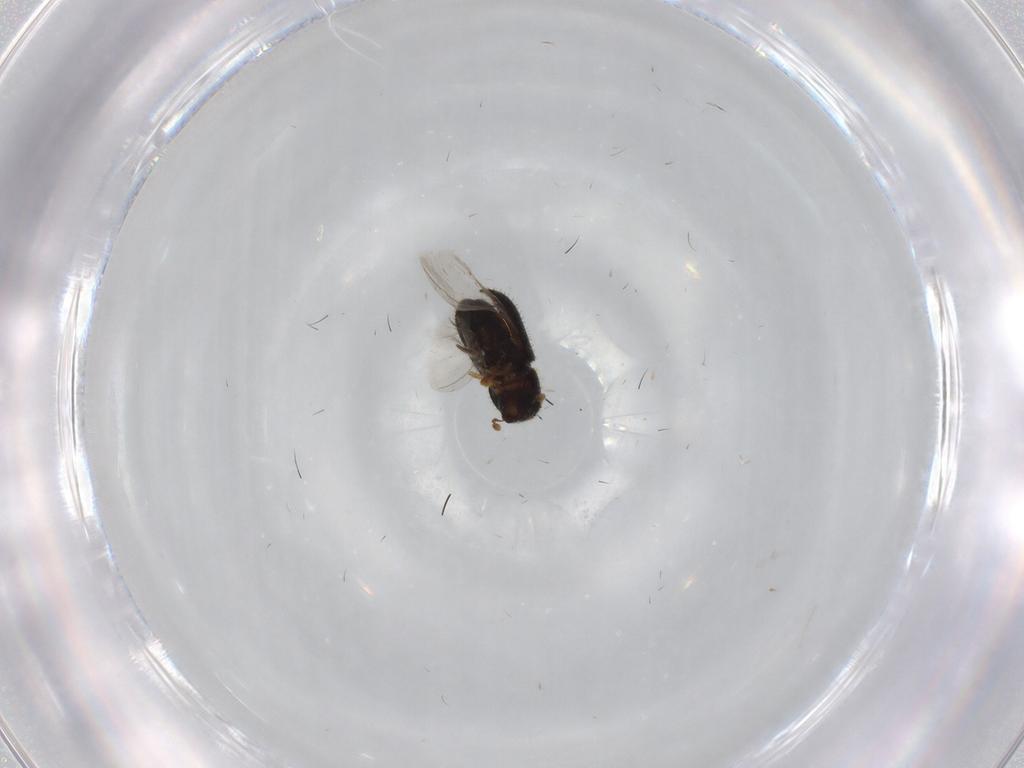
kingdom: Animalia
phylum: Arthropoda
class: Insecta
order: Coleoptera
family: Curculionidae
